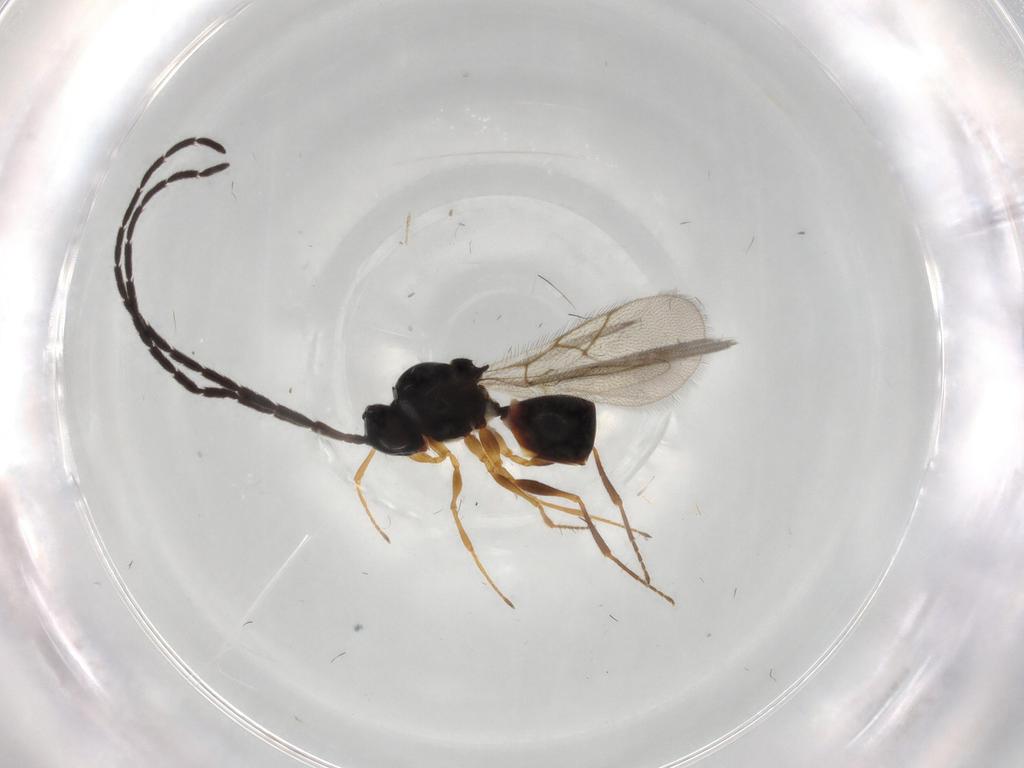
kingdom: Animalia
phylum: Arthropoda
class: Insecta
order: Hymenoptera
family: Figitidae
